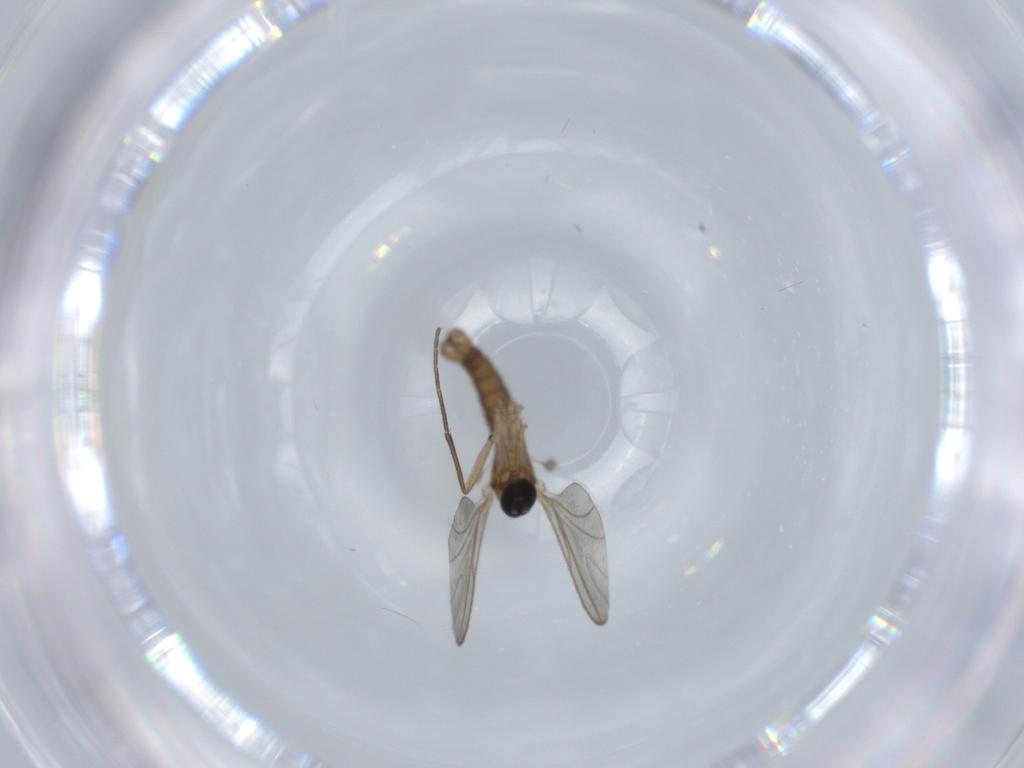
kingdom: Animalia
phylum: Arthropoda
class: Insecta
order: Diptera
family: Sciaridae
